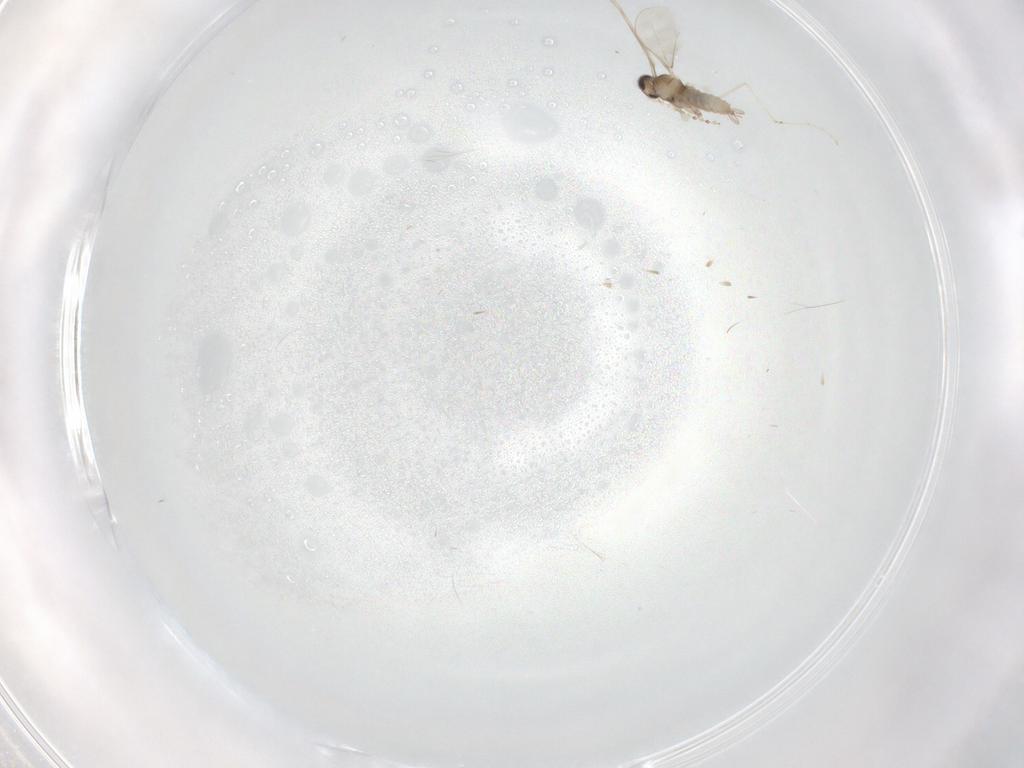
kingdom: Animalia
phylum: Arthropoda
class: Insecta
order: Diptera
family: Cecidomyiidae
